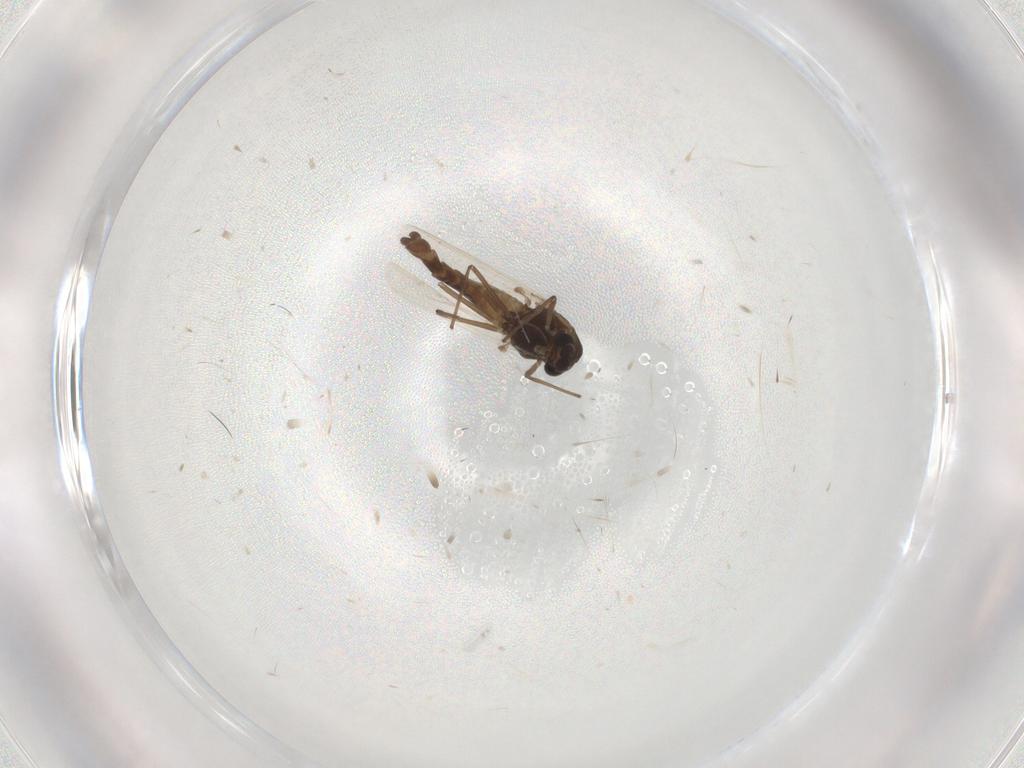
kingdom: Animalia
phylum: Arthropoda
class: Insecta
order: Diptera
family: Chironomidae
